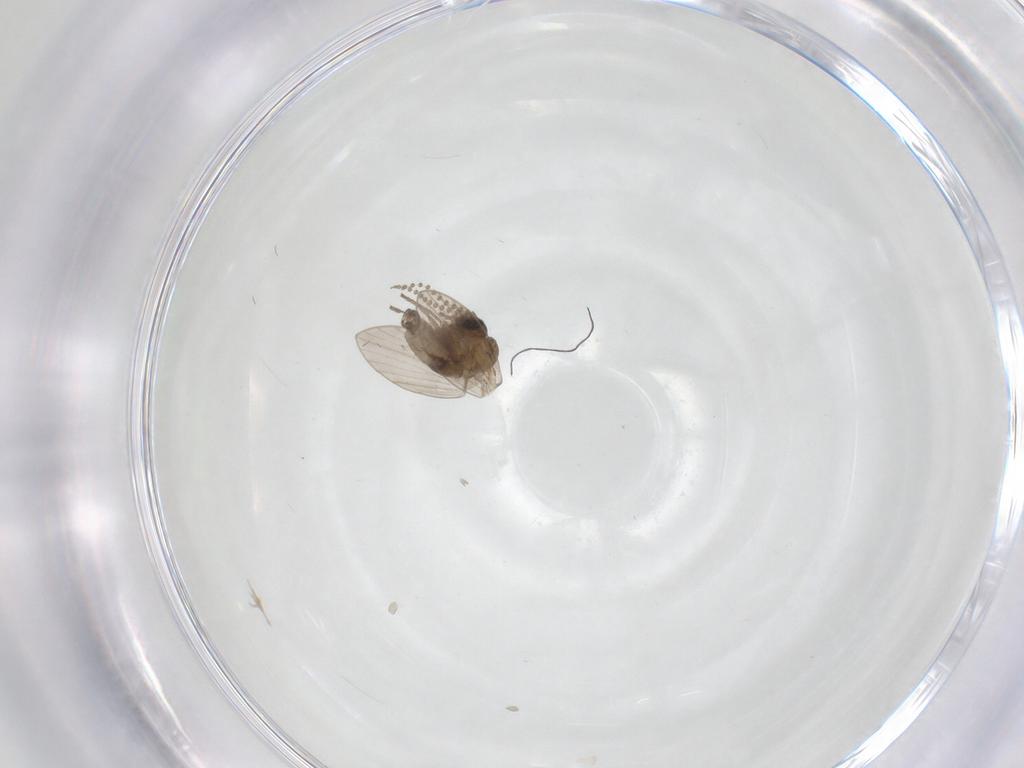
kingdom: Animalia
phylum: Arthropoda
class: Insecta
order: Diptera
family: Psychodidae
